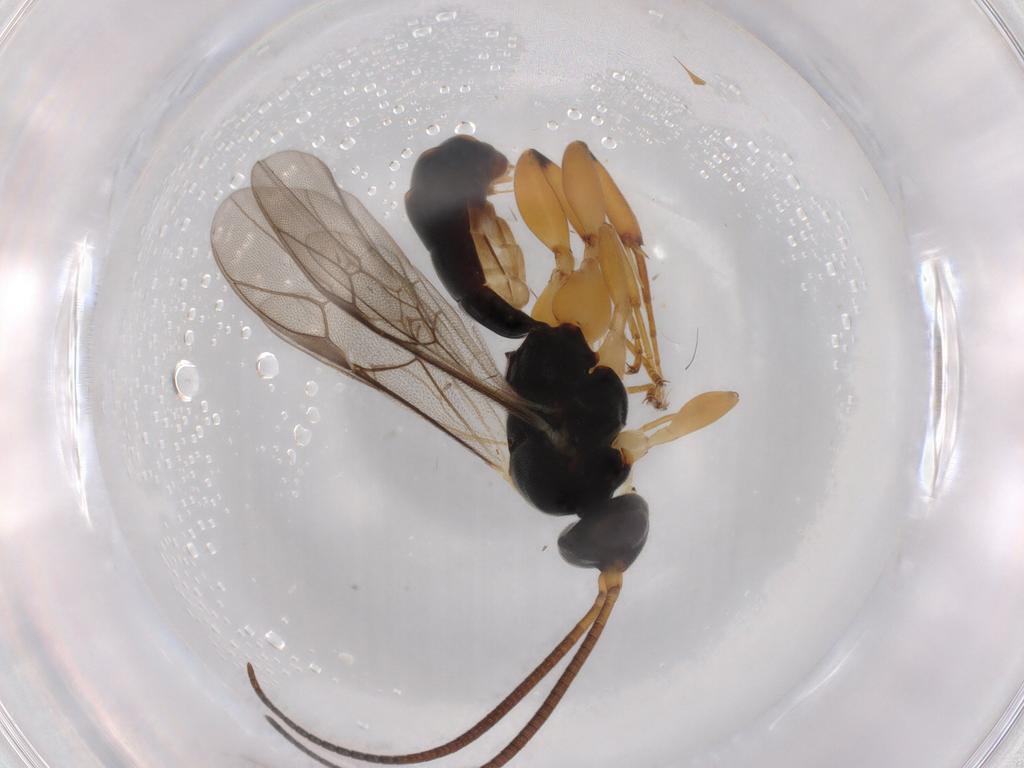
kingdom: Animalia
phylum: Arthropoda
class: Insecta
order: Hymenoptera
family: Ichneumonidae
